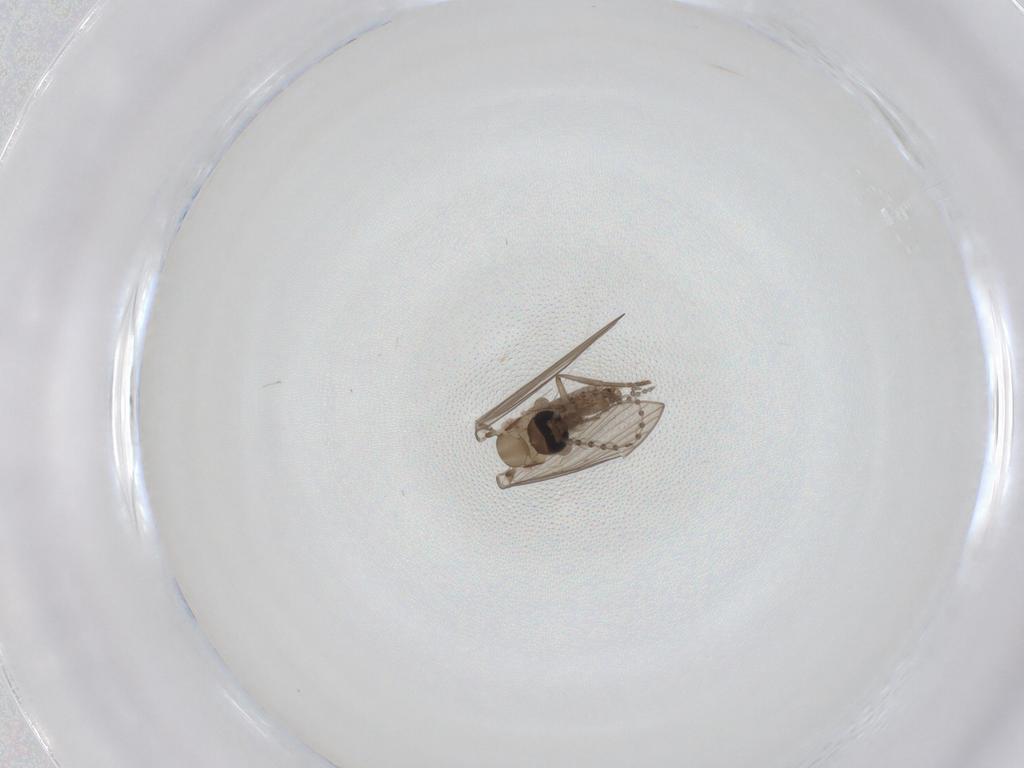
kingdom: Animalia
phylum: Arthropoda
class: Insecta
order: Diptera
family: Psychodidae
